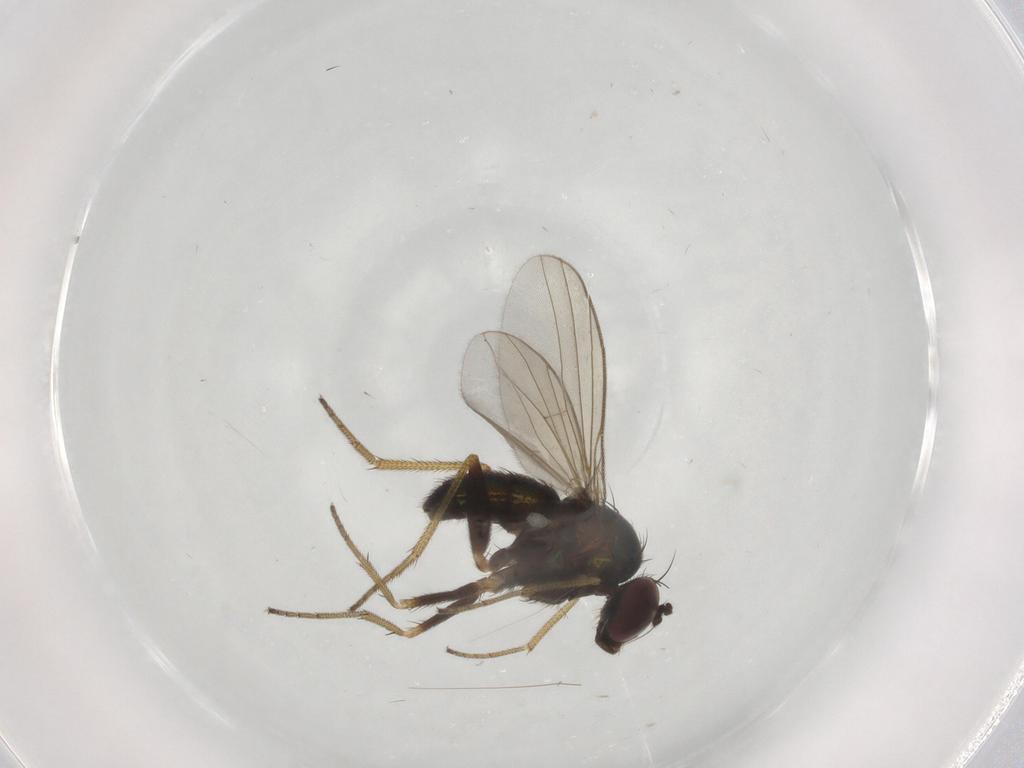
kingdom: Animalia
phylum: Arthropoda
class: Insecta
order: Diptera
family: Dolichopodidae
